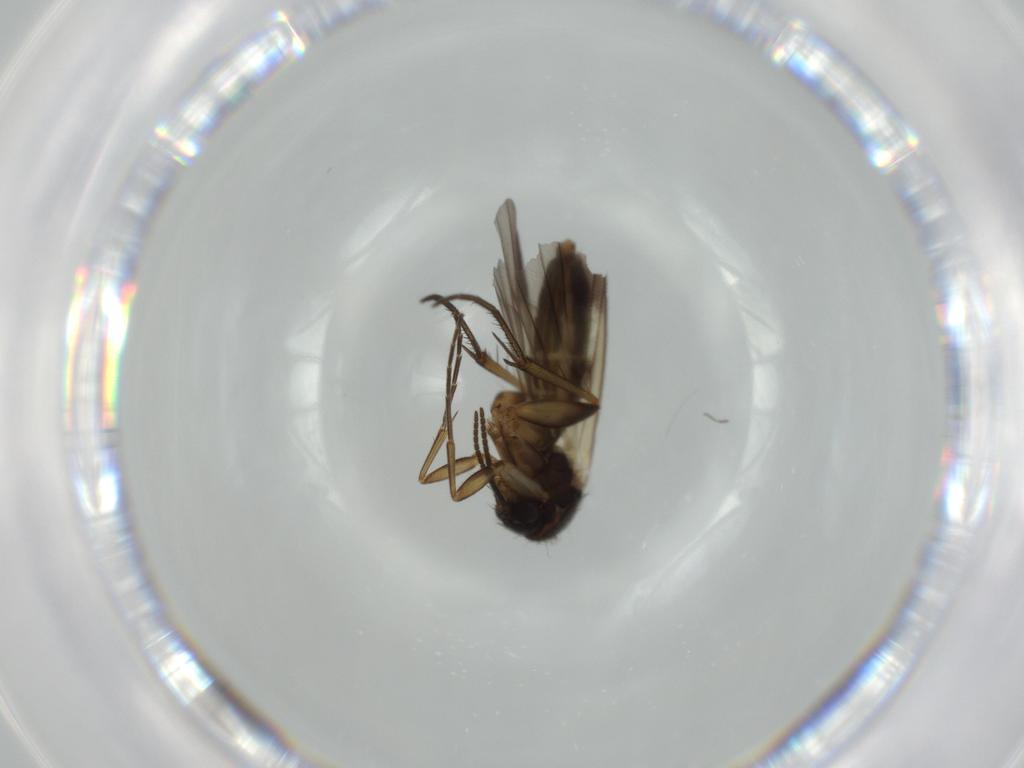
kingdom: Animalia
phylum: Arthropoda
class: Insecta
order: Diptera
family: Mycetophilidae
